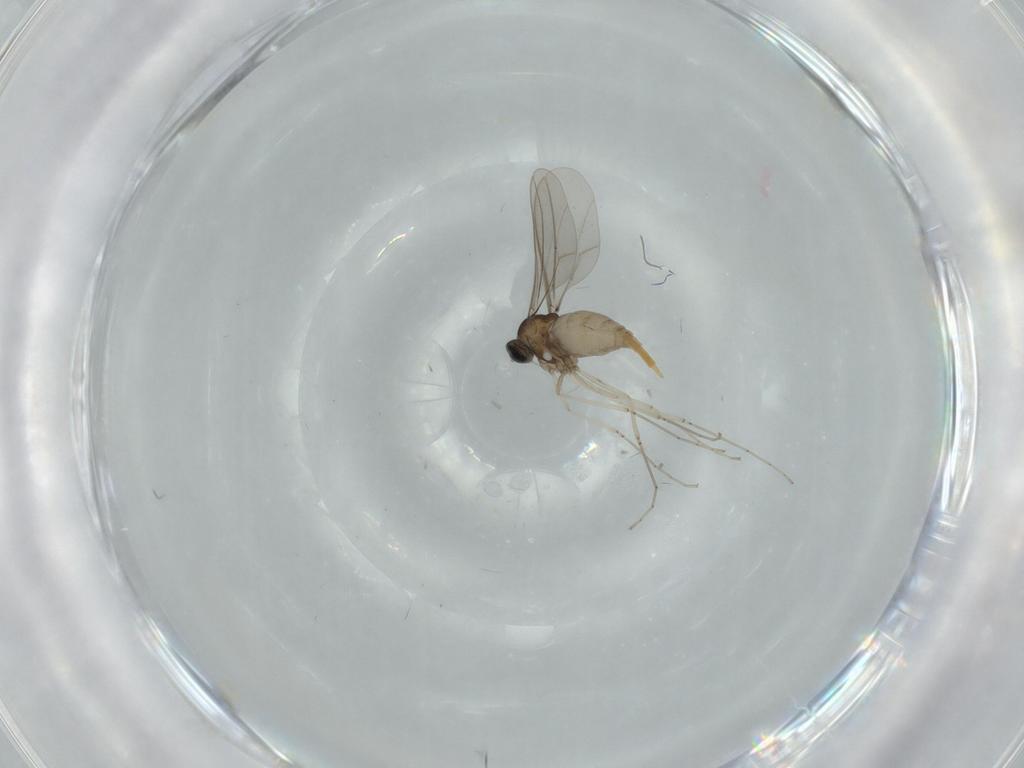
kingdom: Animalia
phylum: Arthropoda
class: Insecta
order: Diptera
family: Cecidomyiidae
